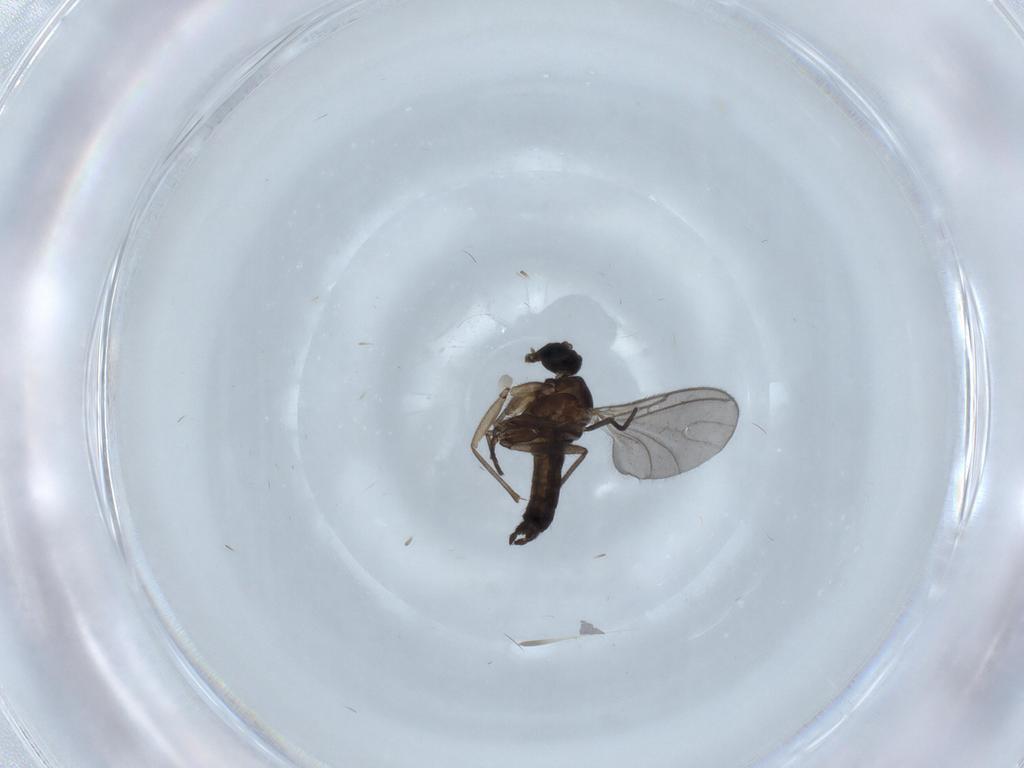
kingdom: Animalia
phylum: Arthropoda
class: Insecta
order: Diptera
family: Sciaridae
